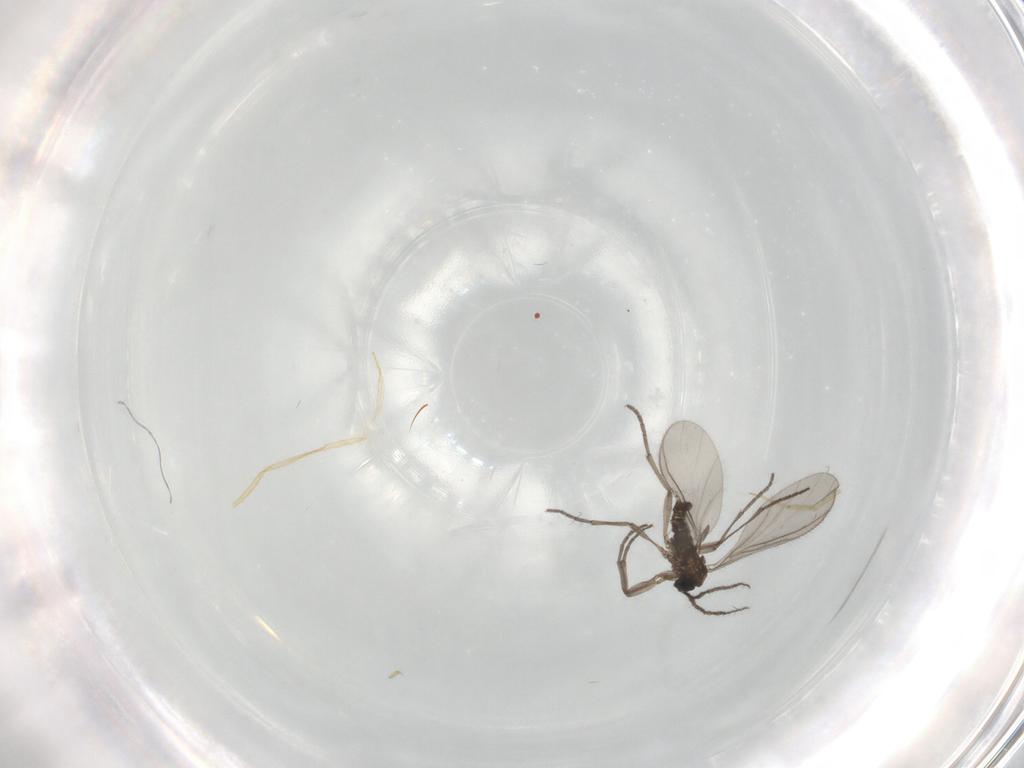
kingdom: Animalia
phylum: Arthropoda
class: Insecta
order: Diptera
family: Sciaridae
